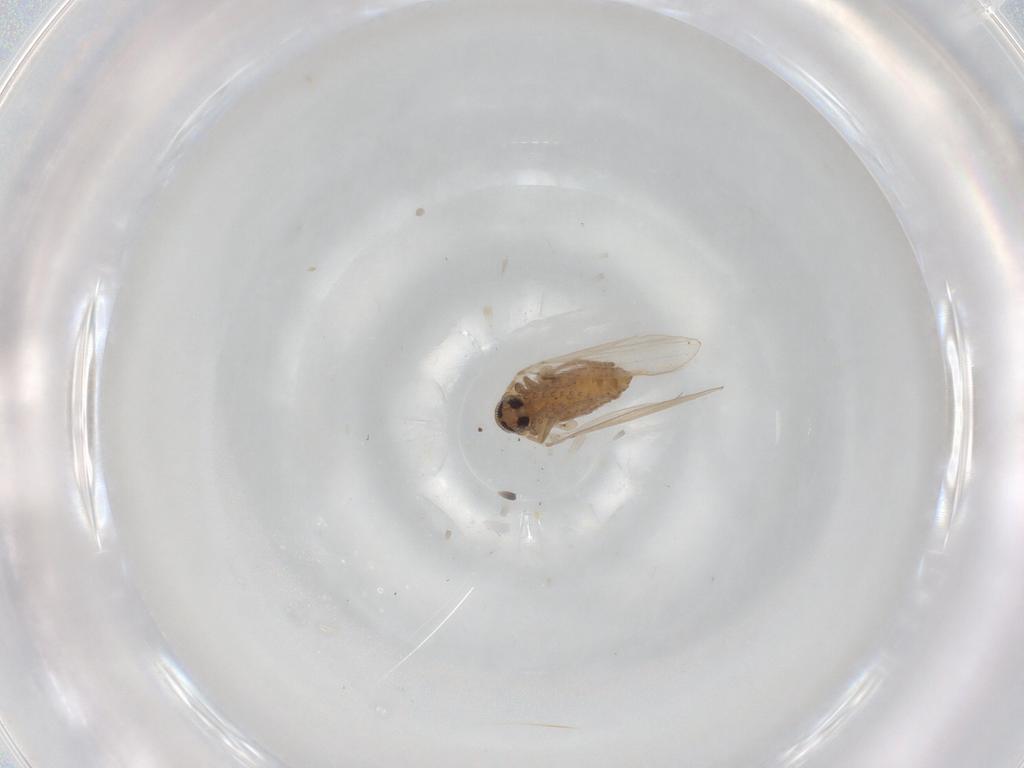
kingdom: Animalia
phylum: Arthropoda
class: Insecta
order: Diptera
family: Psychodidae
